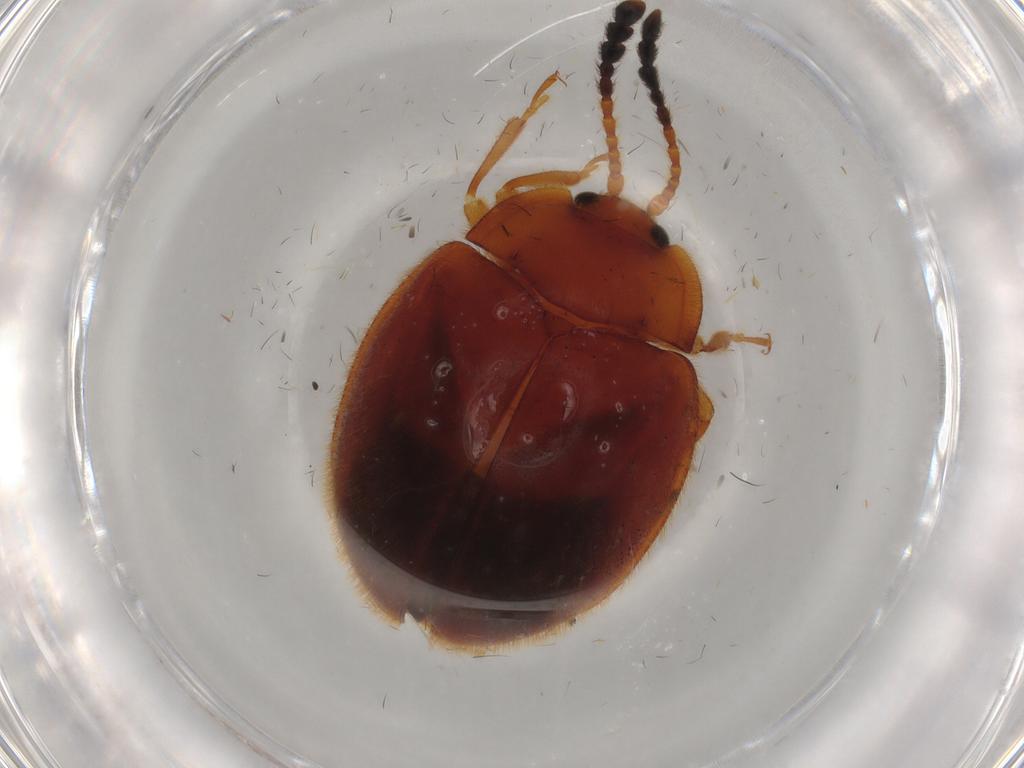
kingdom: Animalia
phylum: Arthropoda
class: Insecta
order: Coleoptera
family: Endomychidae
